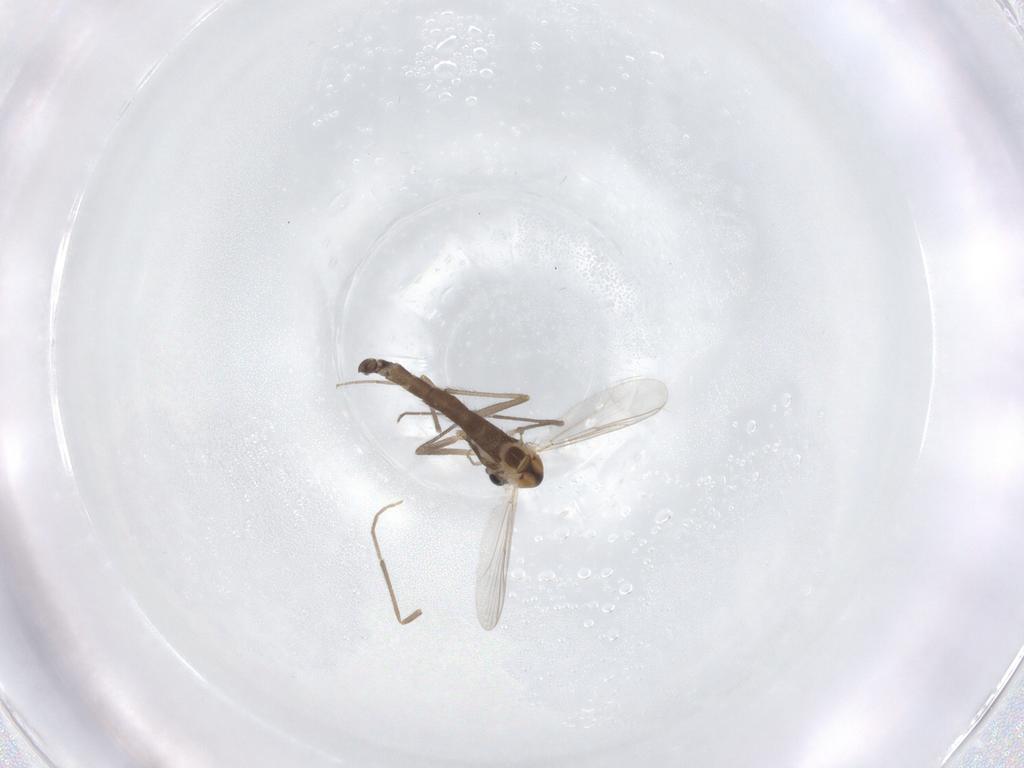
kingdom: Animalia
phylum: Arthropoda
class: Insecta
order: Diptera
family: Chironomidae
